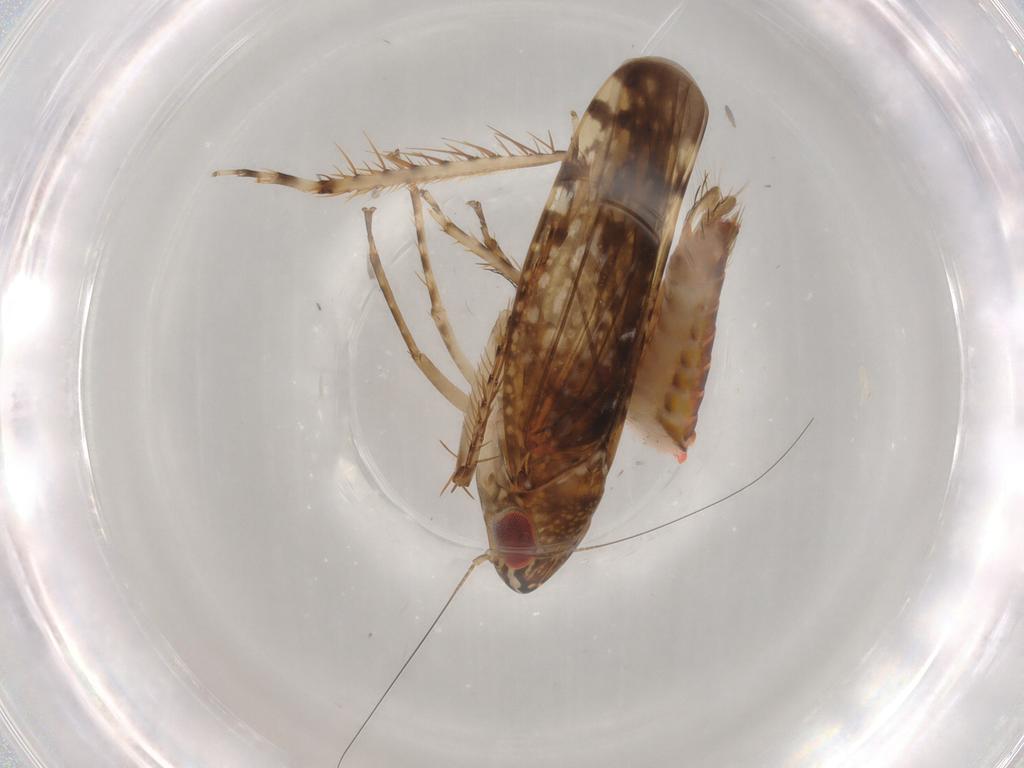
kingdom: Animalia
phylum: Arthropoda
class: Insecta
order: Hemiptera
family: Cicadellidae
